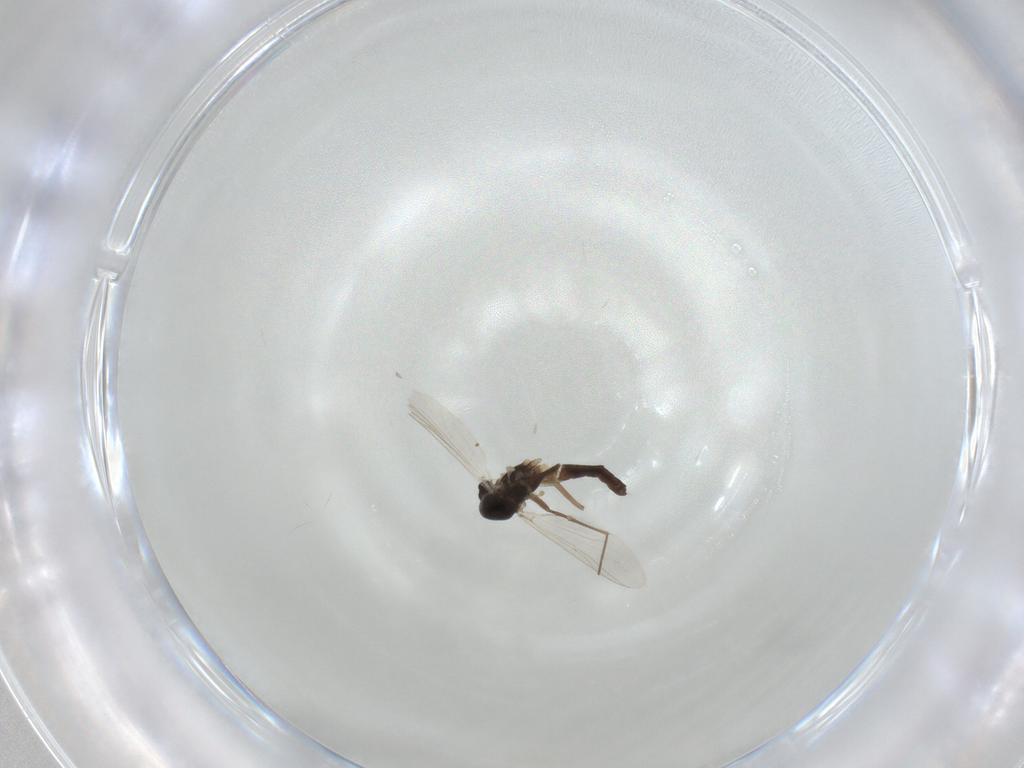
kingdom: Animalia
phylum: Arthropoda
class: Insecta
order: Diptera
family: Chironomidae
